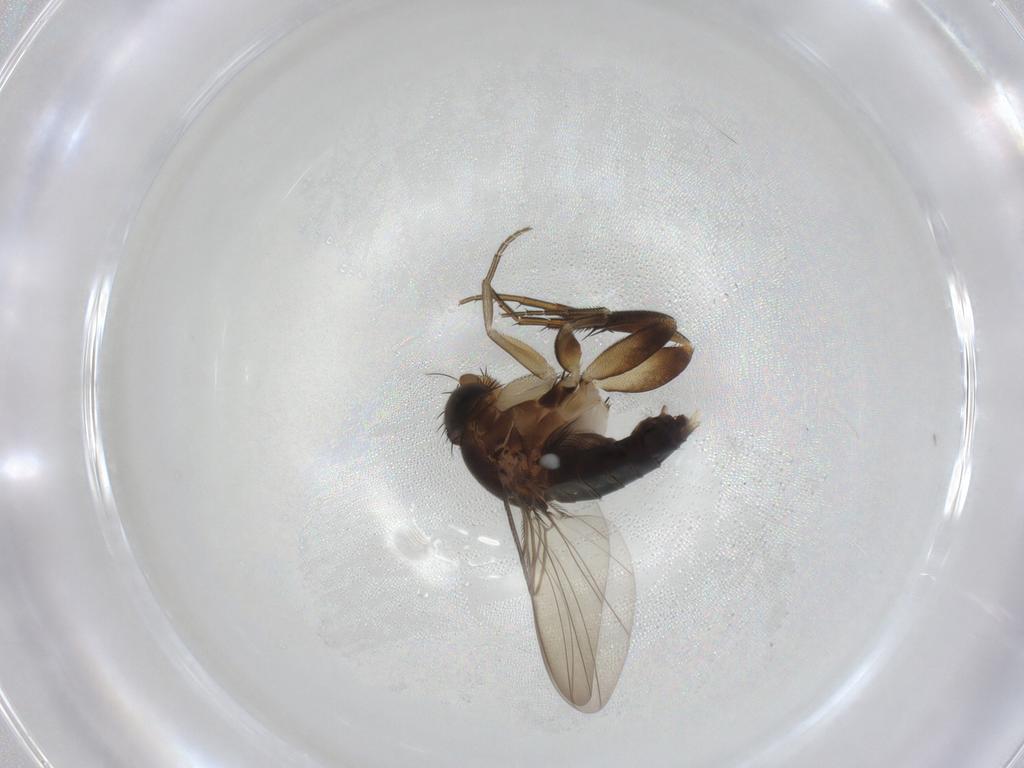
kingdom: Animalia
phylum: Arthropoda
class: Insecta
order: Diptera
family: Phoridae
